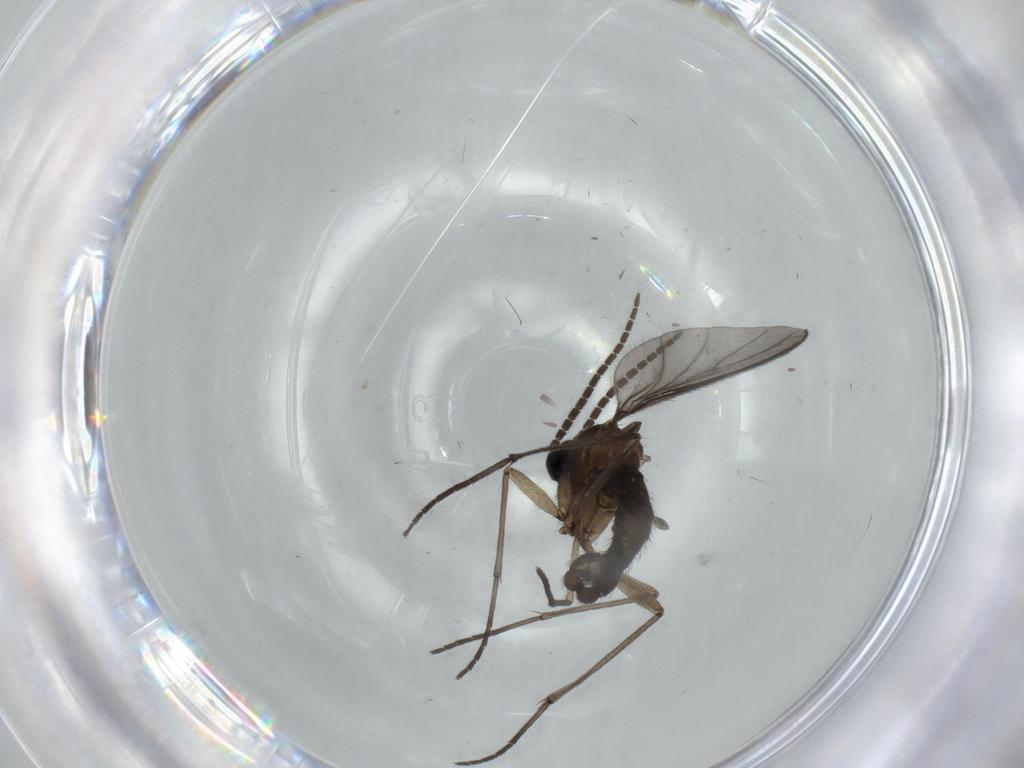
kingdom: Animalia
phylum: Arthropoda
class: Insecta
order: Diptera
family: Sciaridae
